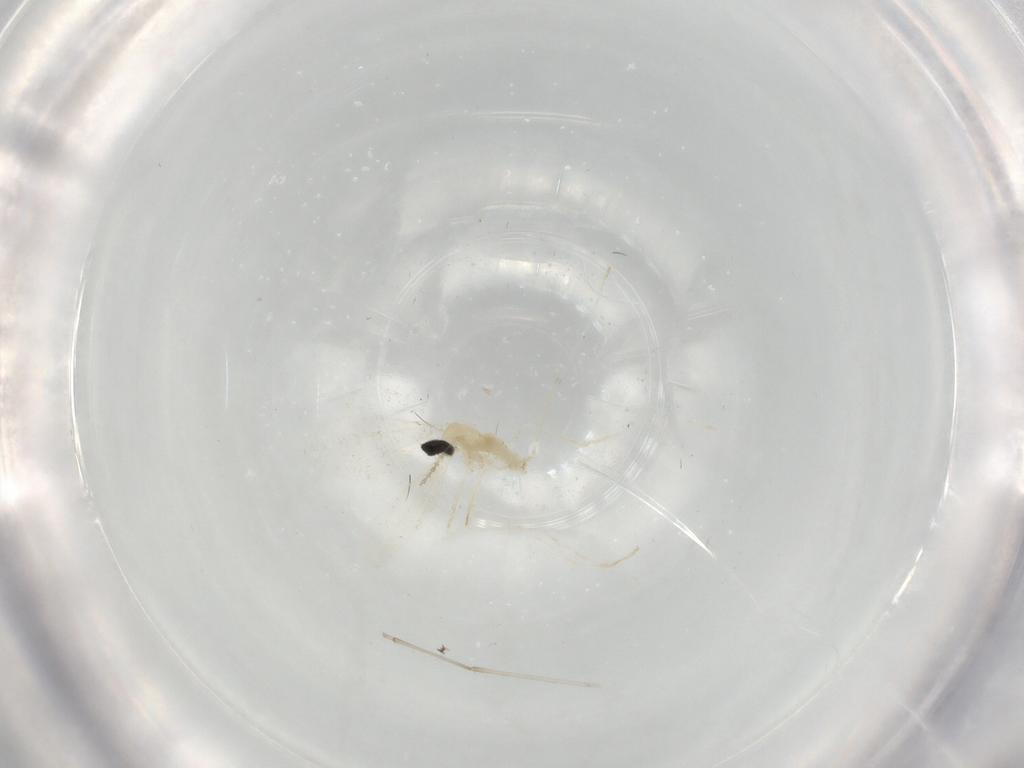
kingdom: Animalia
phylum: Arthropoda
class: Insecta
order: Diptera
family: Cecidomyiidae
